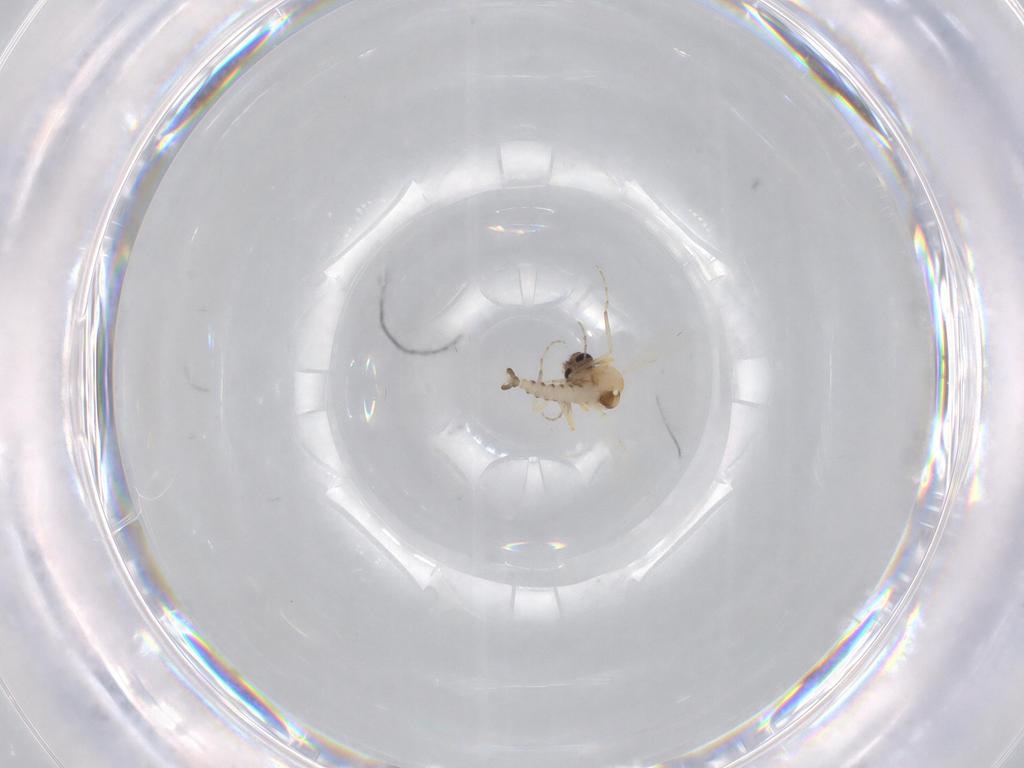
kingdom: Animalia
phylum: Arthropoda
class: Insecta
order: Diptera
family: Ceratopogonidae
